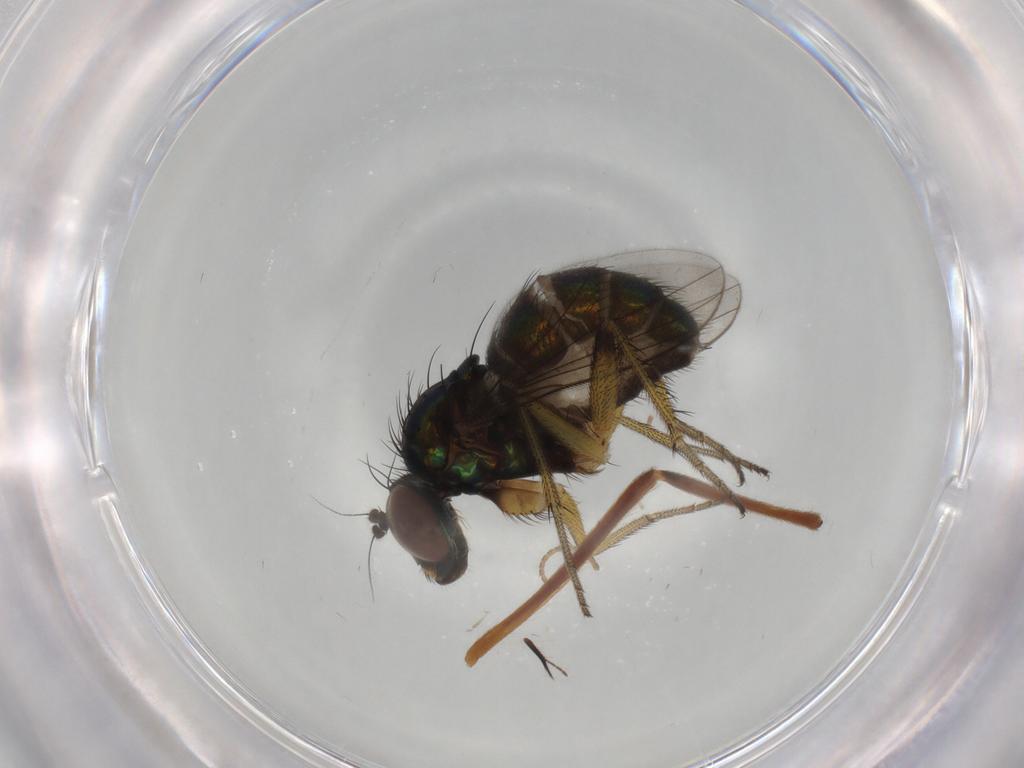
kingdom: Animalia
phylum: Arthropoda
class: Insecta
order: Diptera
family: Dolichopodidae
